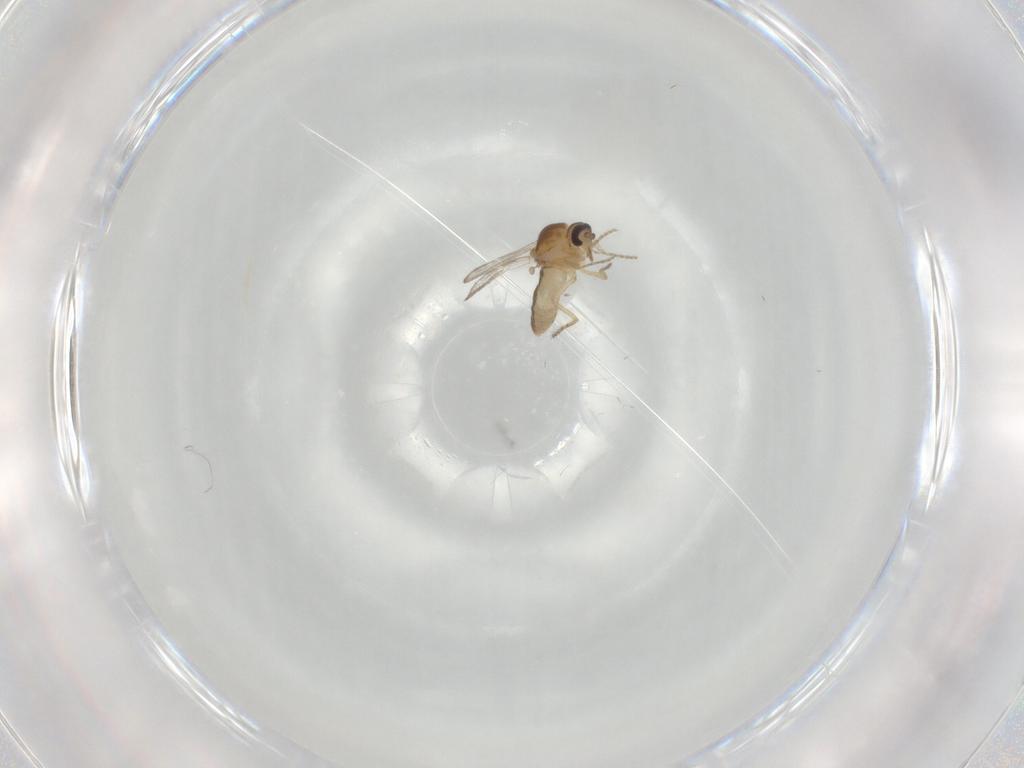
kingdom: Animalia
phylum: Arthropoda
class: Insecta
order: Diptera
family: Ceratopogonidae
